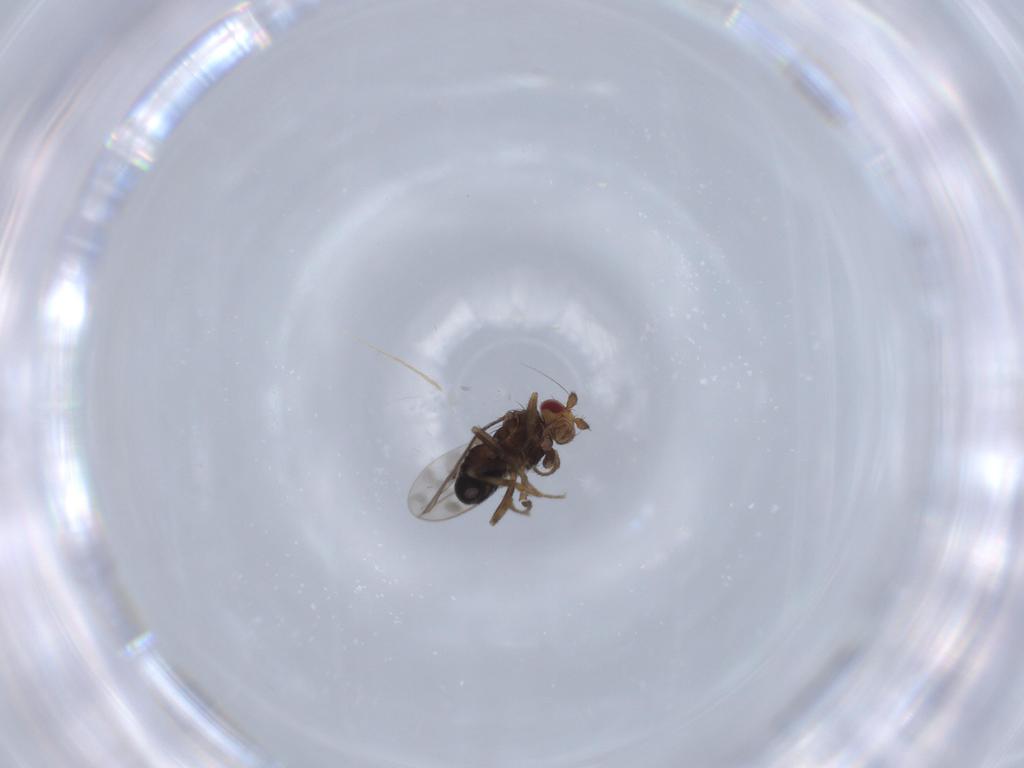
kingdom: Animalia
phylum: Arthropoda
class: Insecta
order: Diptera
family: Sphaeroceridae
